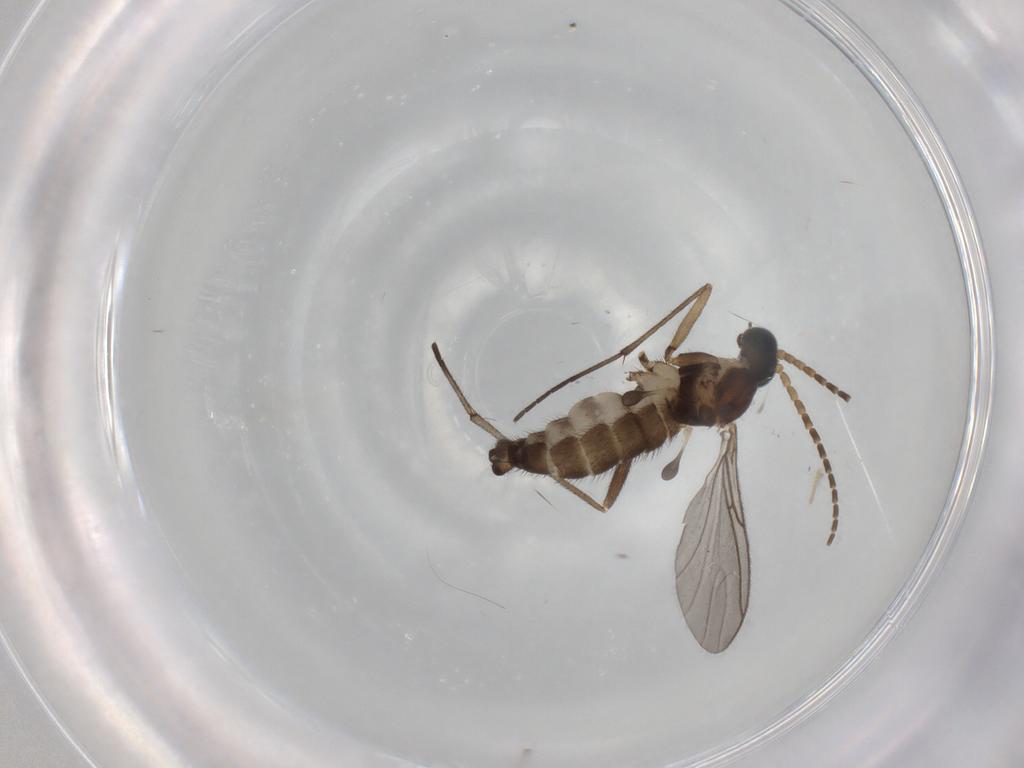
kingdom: Animalia
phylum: Arthropoda
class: Insecta
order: Diptera
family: Sciaridae
